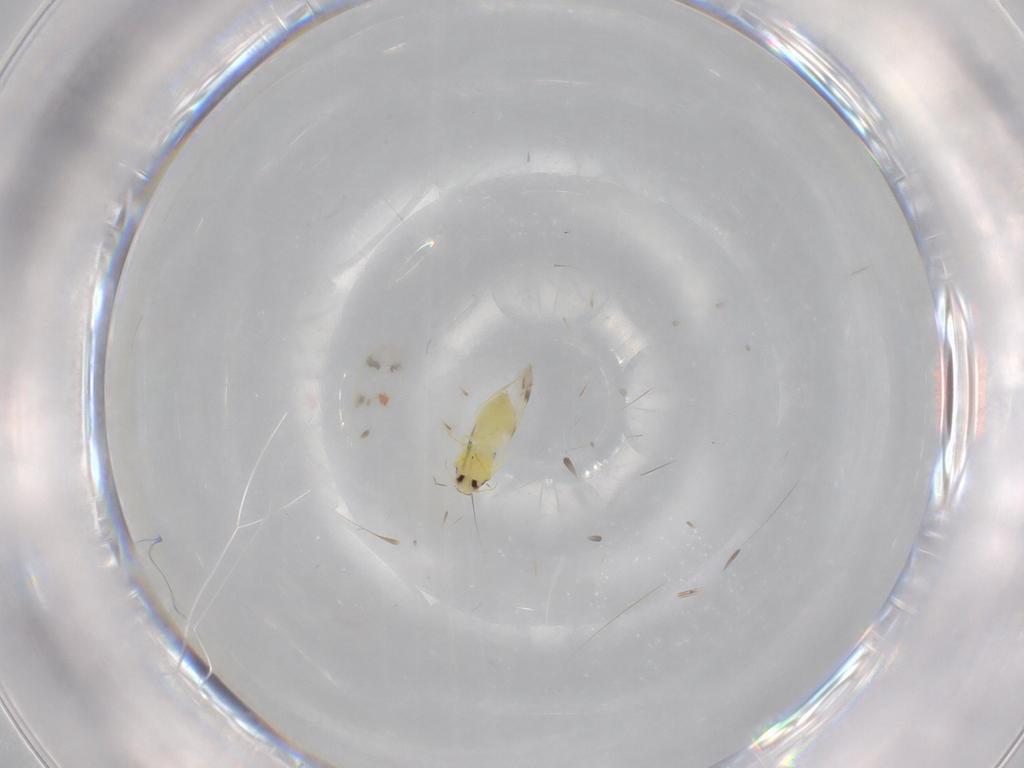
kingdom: Animalia
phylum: Arthropoda
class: Insecta
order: Hemiptera
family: Aleyrodidae
